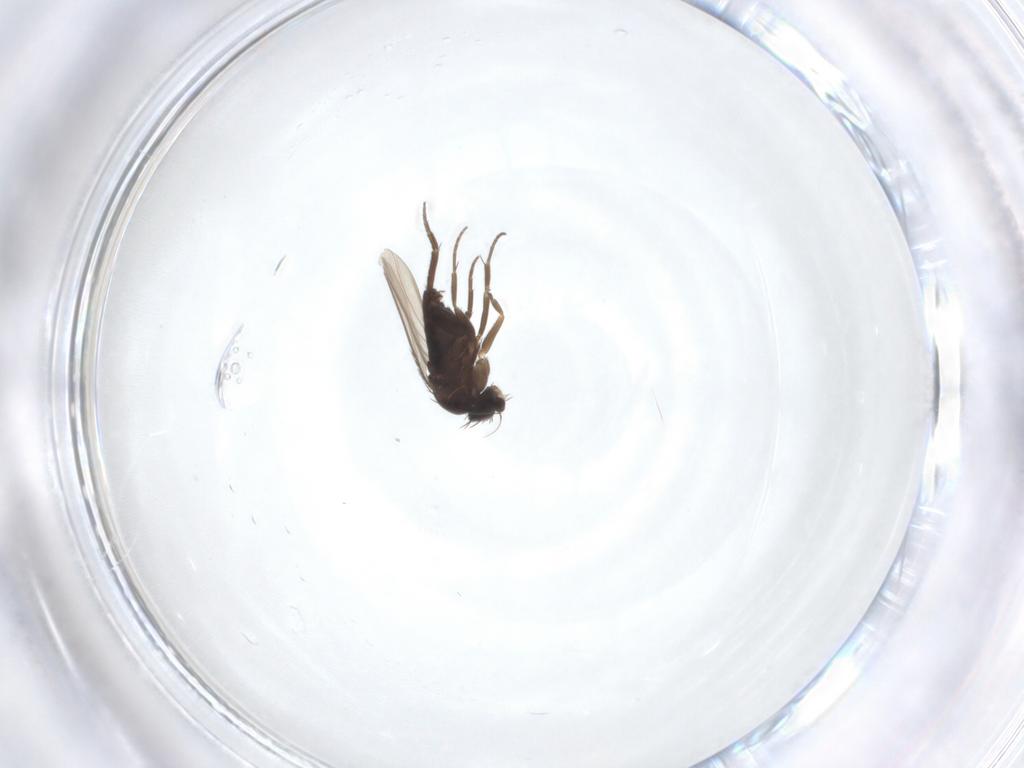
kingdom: Animalia
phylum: Arthropoda
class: Insecta
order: Diptera
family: Phoridae
